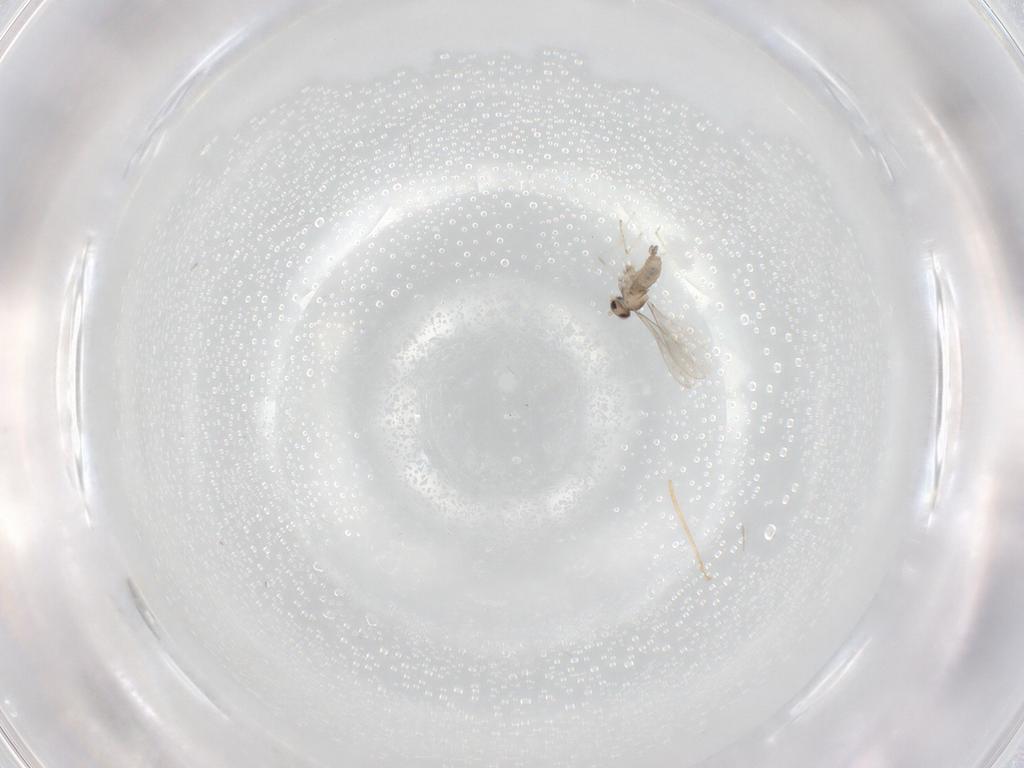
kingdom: Animalia
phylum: Arthropoda
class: Insecta
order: Diptera
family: Cecidomyiidae
